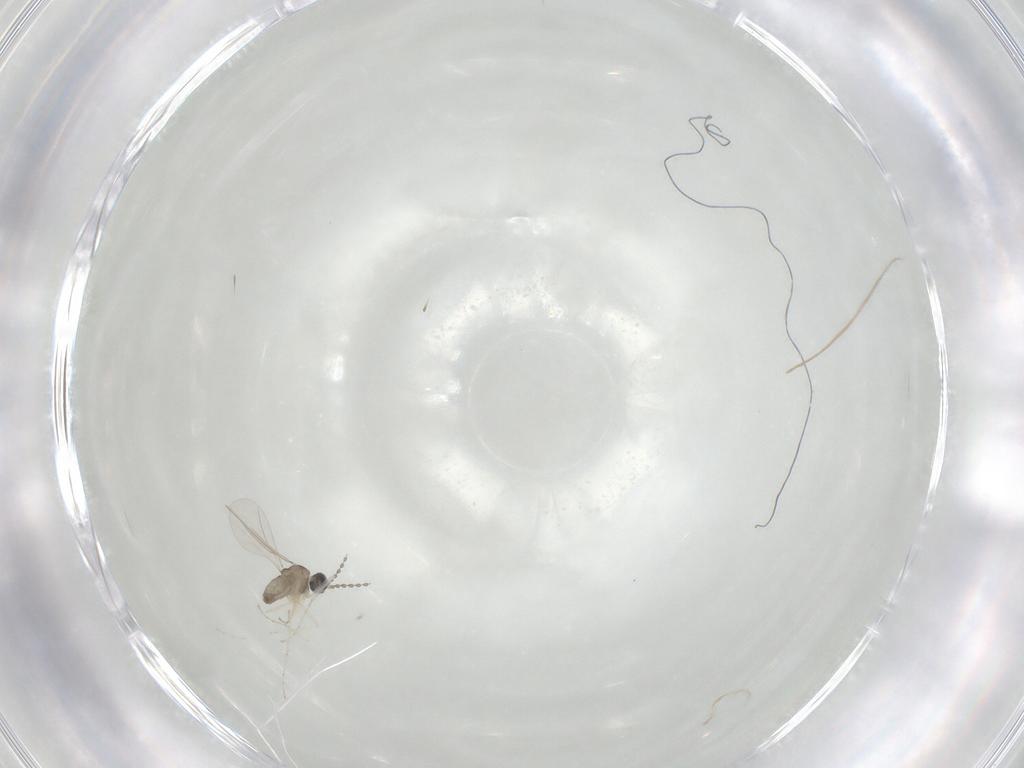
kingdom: Animalia
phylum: Arthropoda
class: Insecta
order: Diptera
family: Cecidomyiidae
